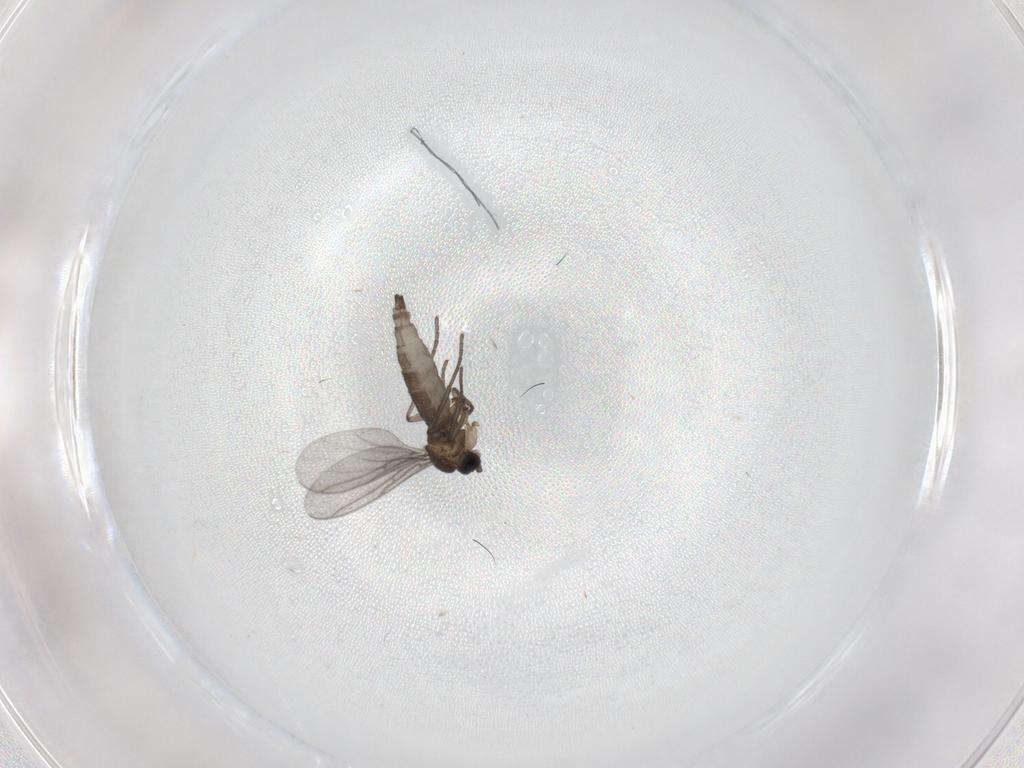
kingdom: Animalia
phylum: Arthropoda
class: Insecta
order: Diptera
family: Sciaridae
